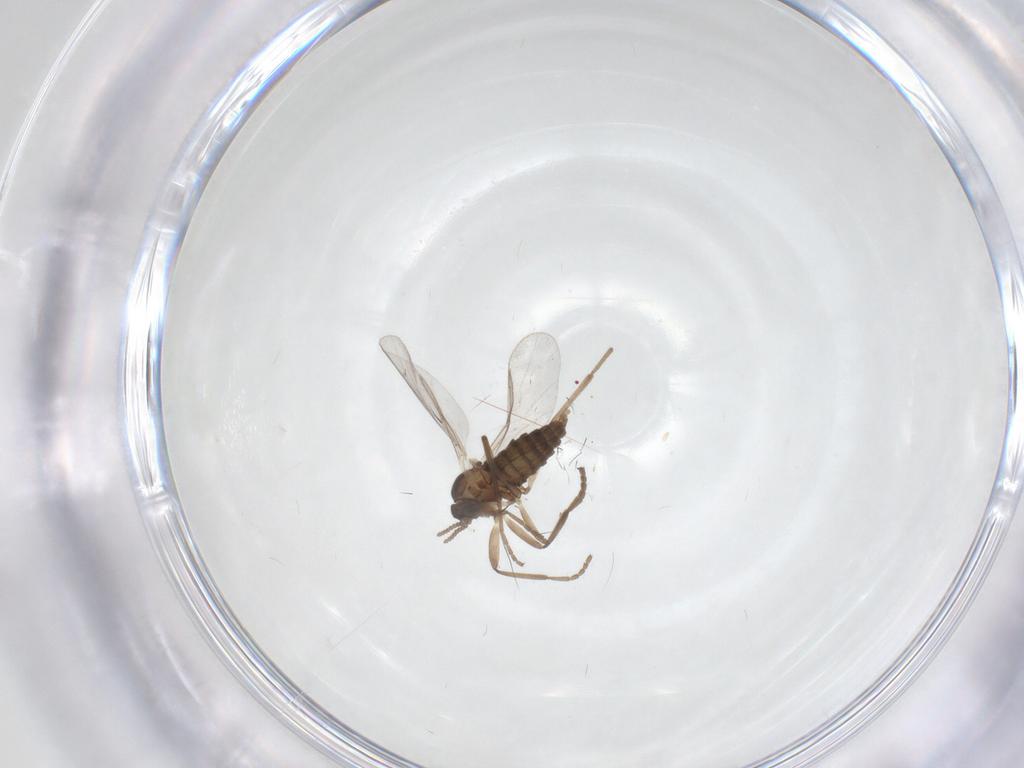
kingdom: Animalia
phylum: Arthropoda
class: Insecta
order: Diptera
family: Cecidomyiidae
